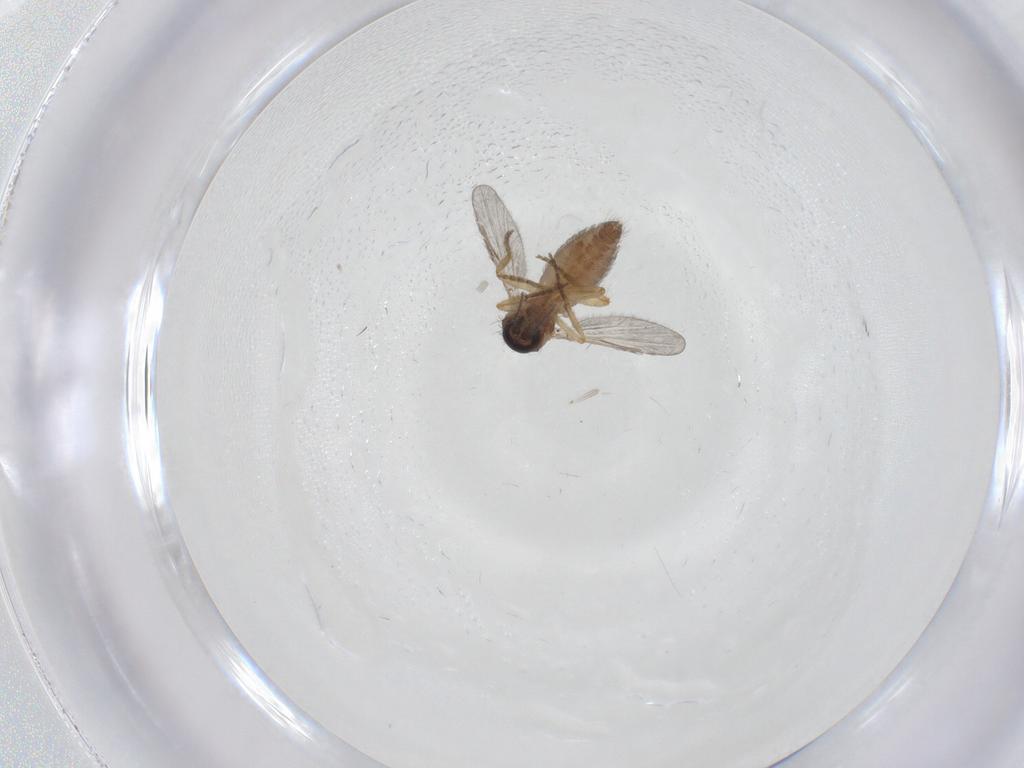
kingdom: Animalia
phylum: Arthropoda
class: Insecta
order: Diptera
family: Ceratopogonidae
